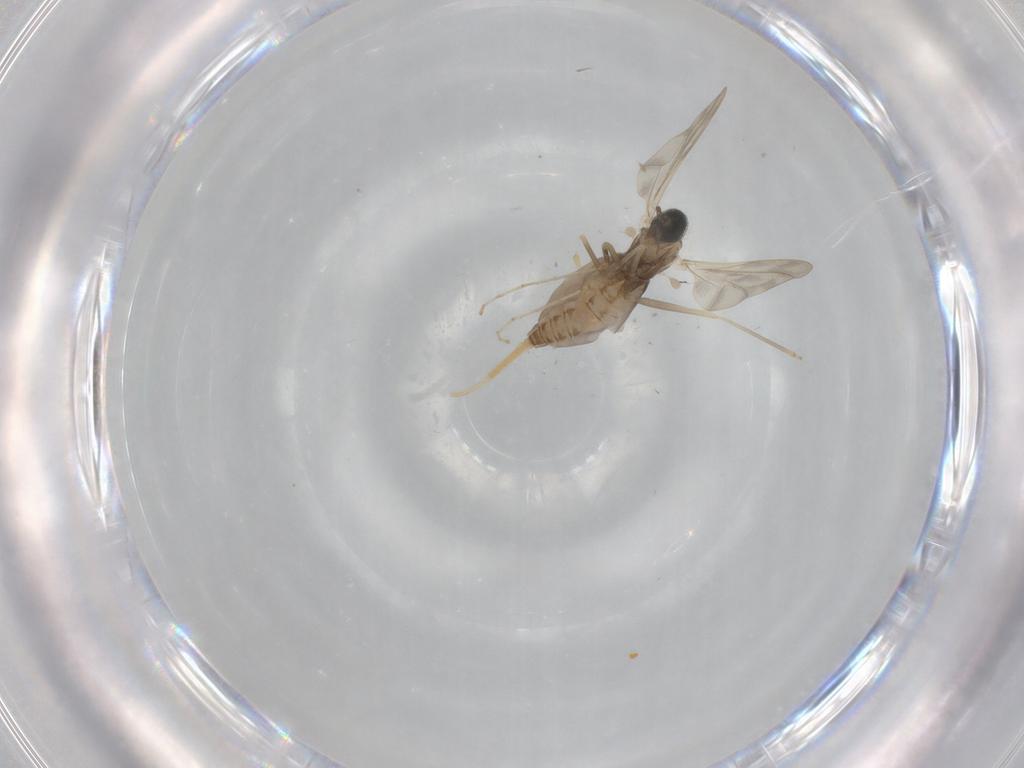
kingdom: Animalia
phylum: Arthropoda
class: Insecta
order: Diptera
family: Cecidomyiidae
